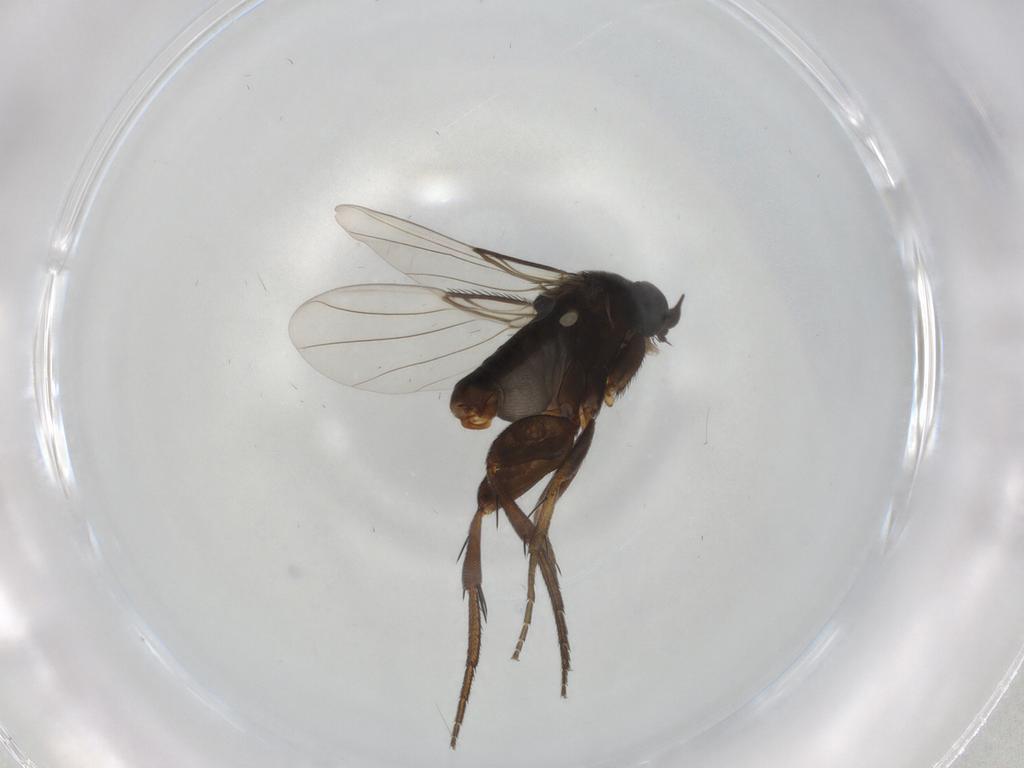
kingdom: Animalia
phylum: Arthropoda
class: Insecta
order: Diptera
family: Phoridae
